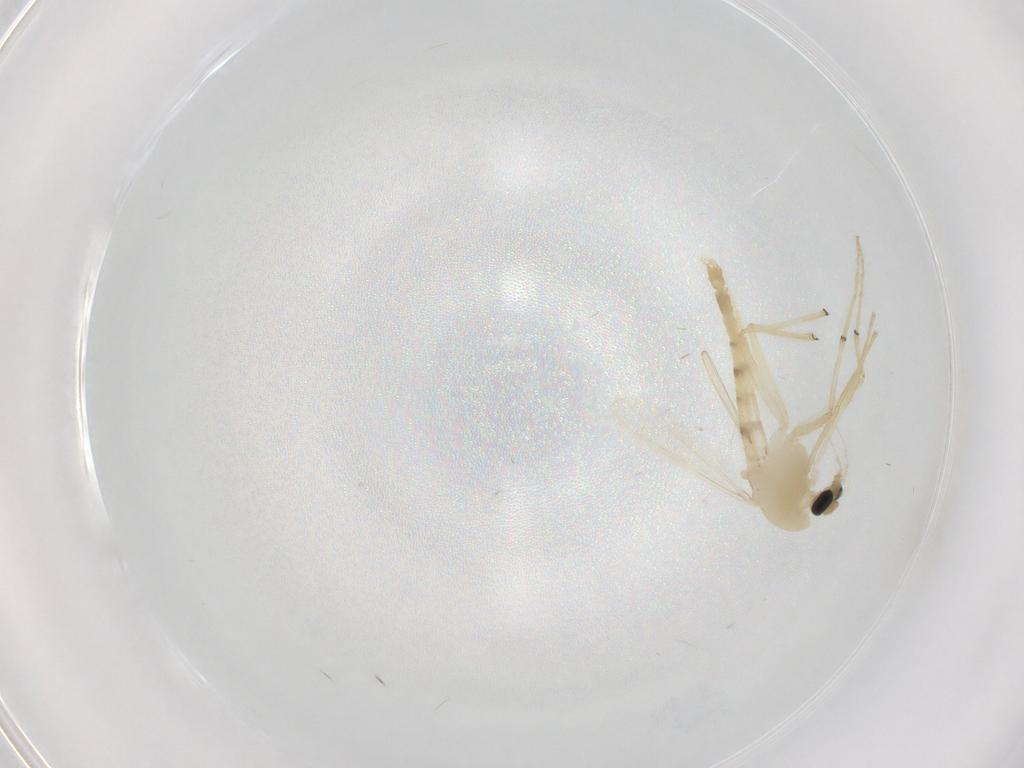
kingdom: Animalia
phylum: Arthropoda
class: Insecta
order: Diptera
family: Chironomidae
